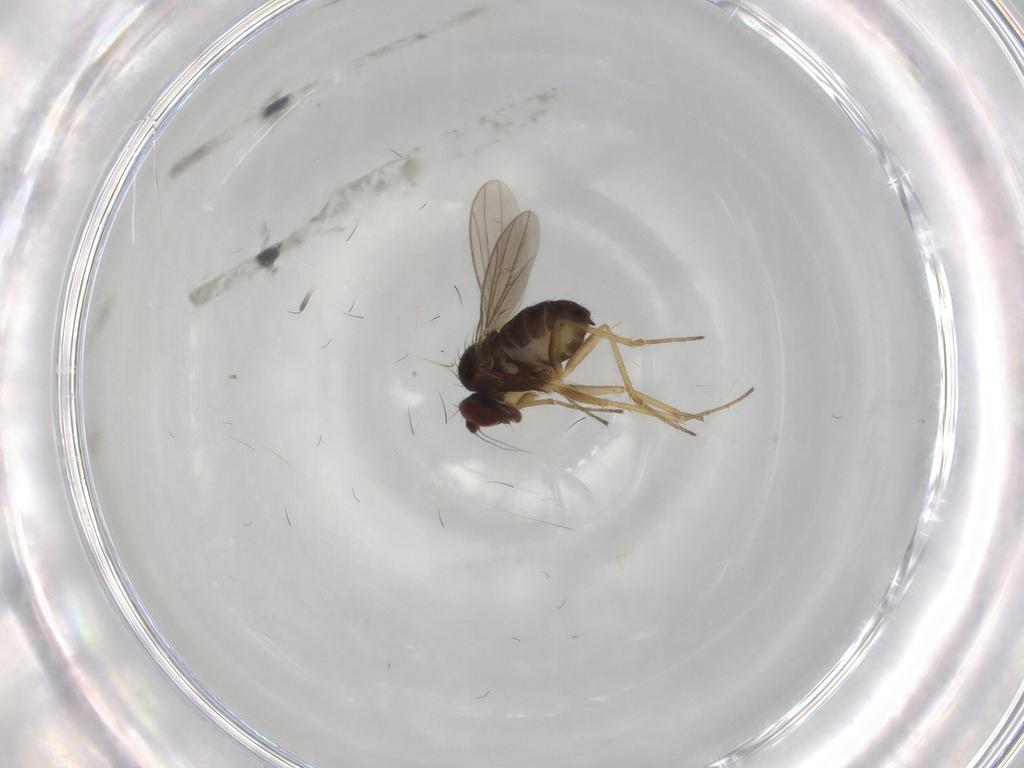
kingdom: Animalia
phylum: Arthropoda
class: Insecta
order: Diptera
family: Dolichopodidae
